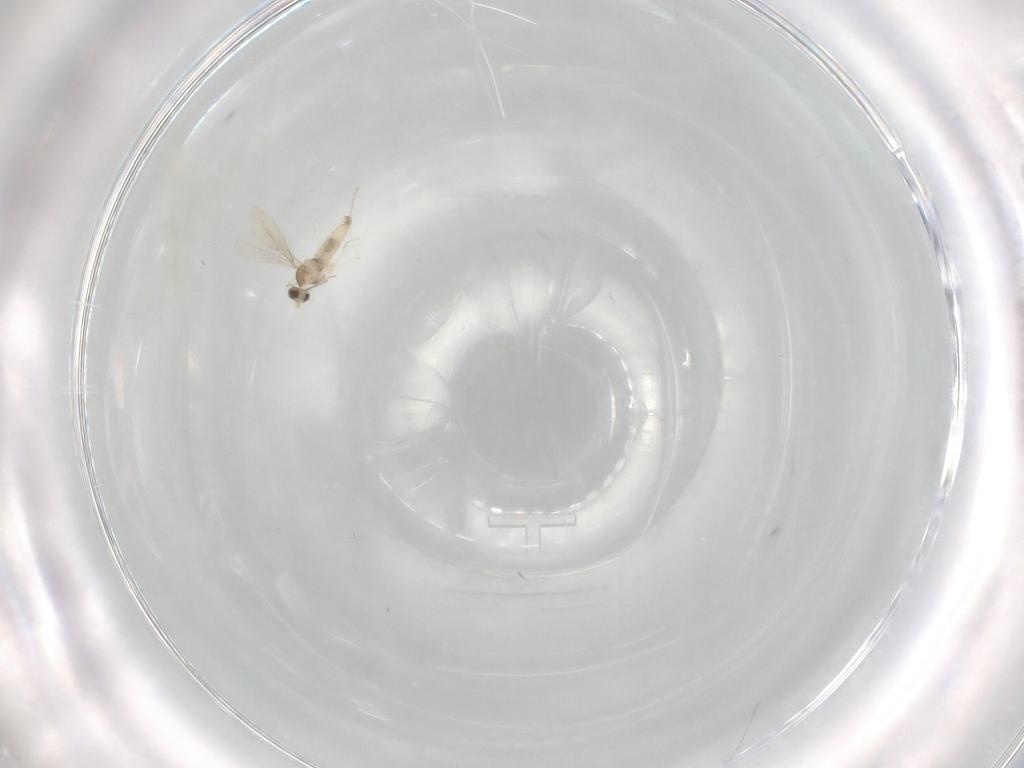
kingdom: Animalia
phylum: Arthropoda
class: Insecta
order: Diptera
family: Cecidomyiidae
